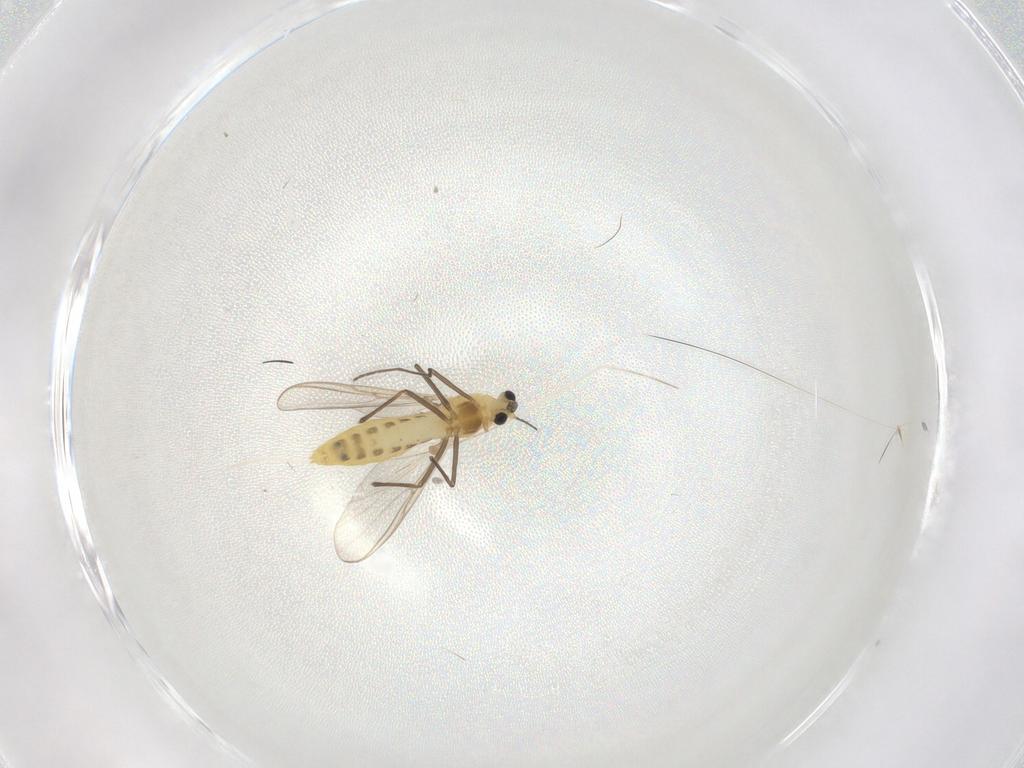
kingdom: Animalia
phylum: Arthropoda
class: Insecta
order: Diptera
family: Chironomidae
